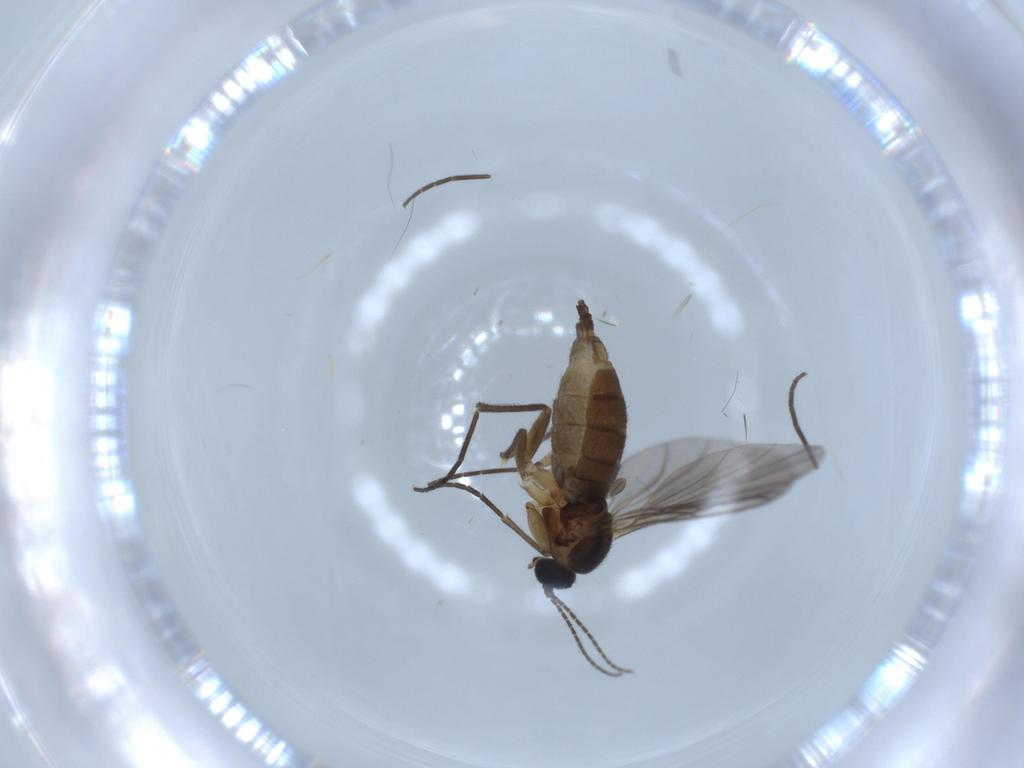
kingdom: Animalia
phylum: Arthropoda
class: Insecta
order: Diptera
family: Sciaridae
